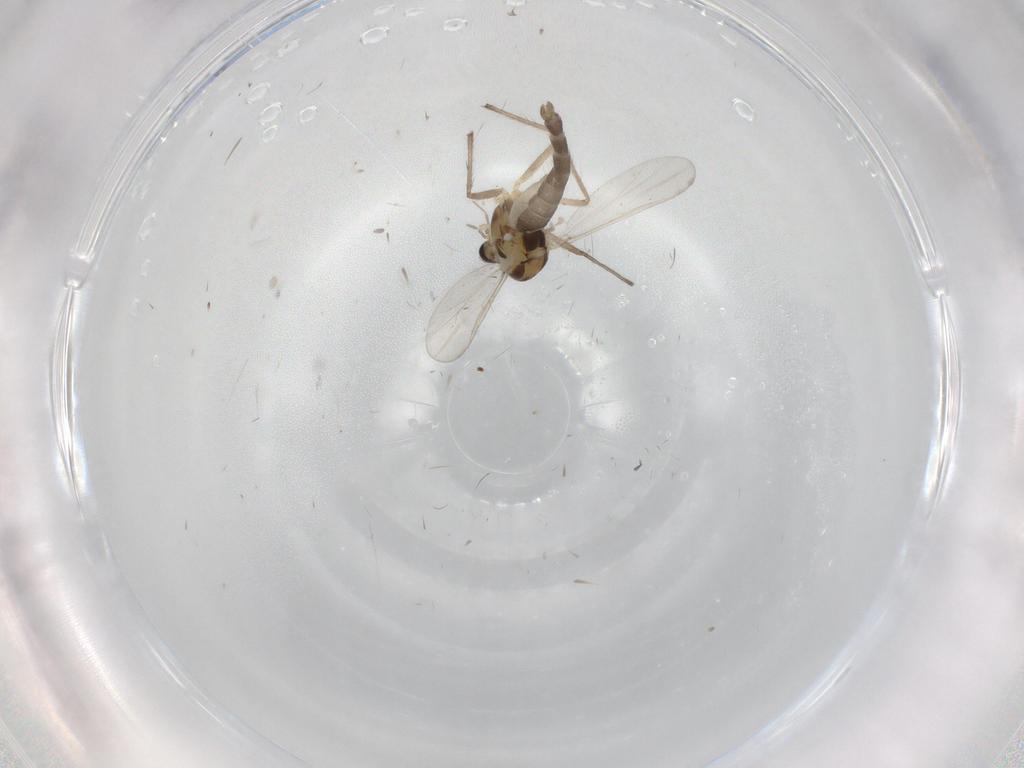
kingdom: Animalia
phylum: Arthropoda
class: Insecta
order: Diptera
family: Chironomidae
